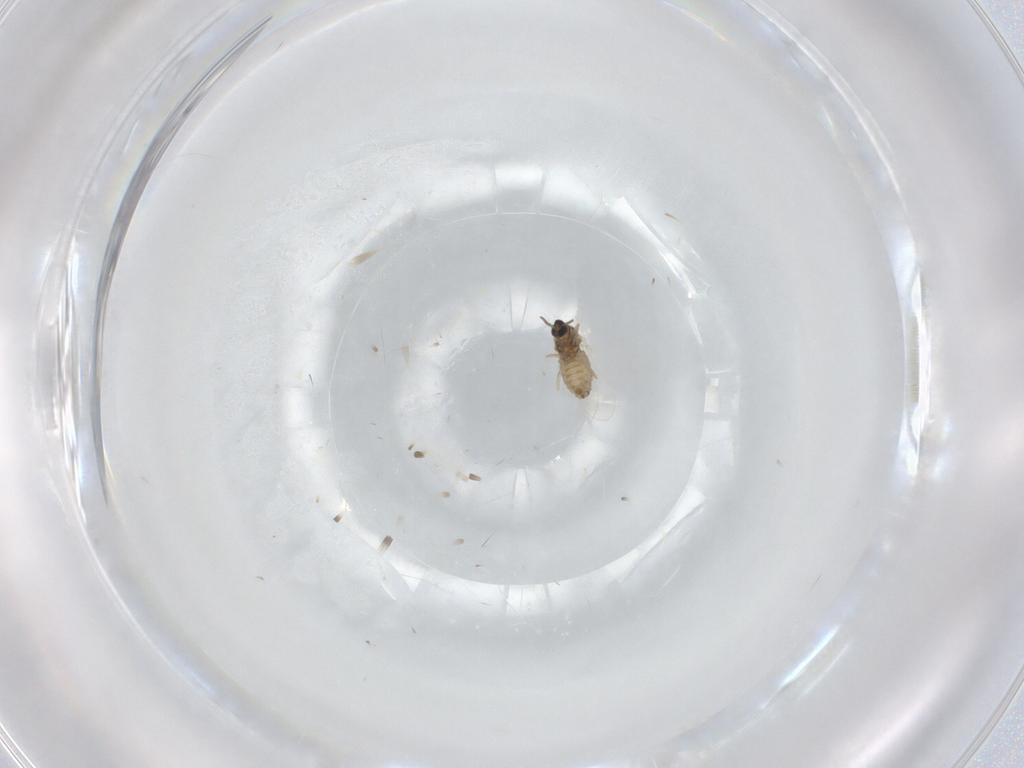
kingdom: Animalia
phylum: Arthropoda
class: Insecta
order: Diptera
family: Cecidomyiidae
